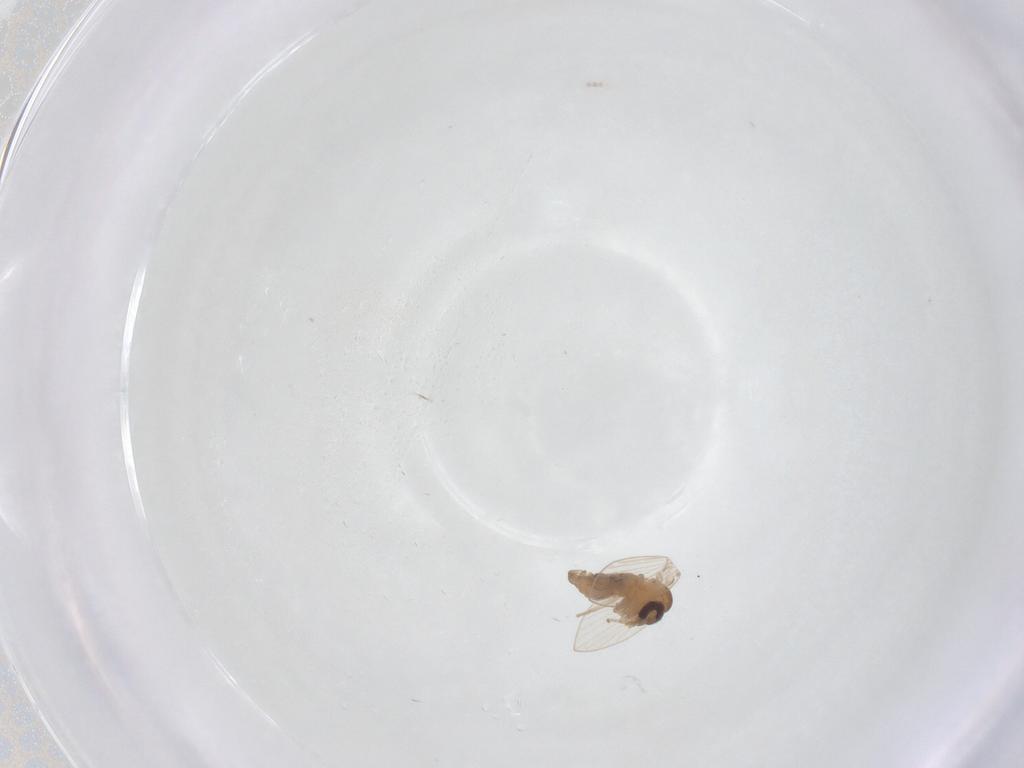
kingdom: Animalia
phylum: Arthropoda
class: Insecta
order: Diptera
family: Psychodidae
